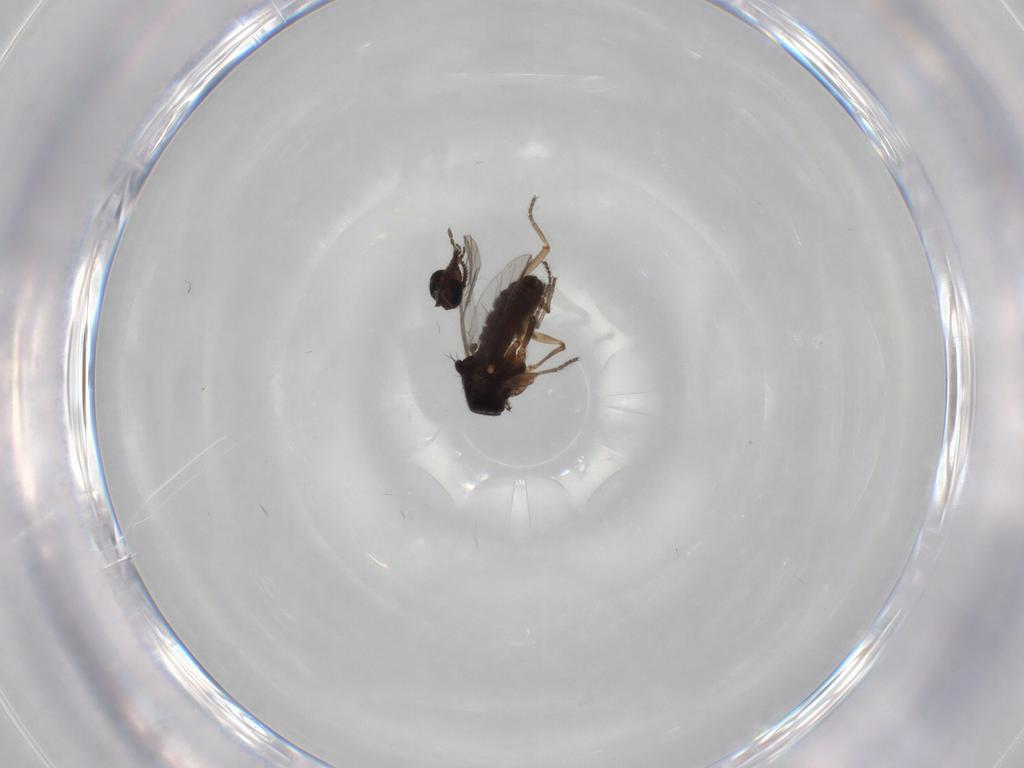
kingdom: Animalia
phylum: Arthropoda
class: Insecta
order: Diptera
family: Ceratopogonidae
